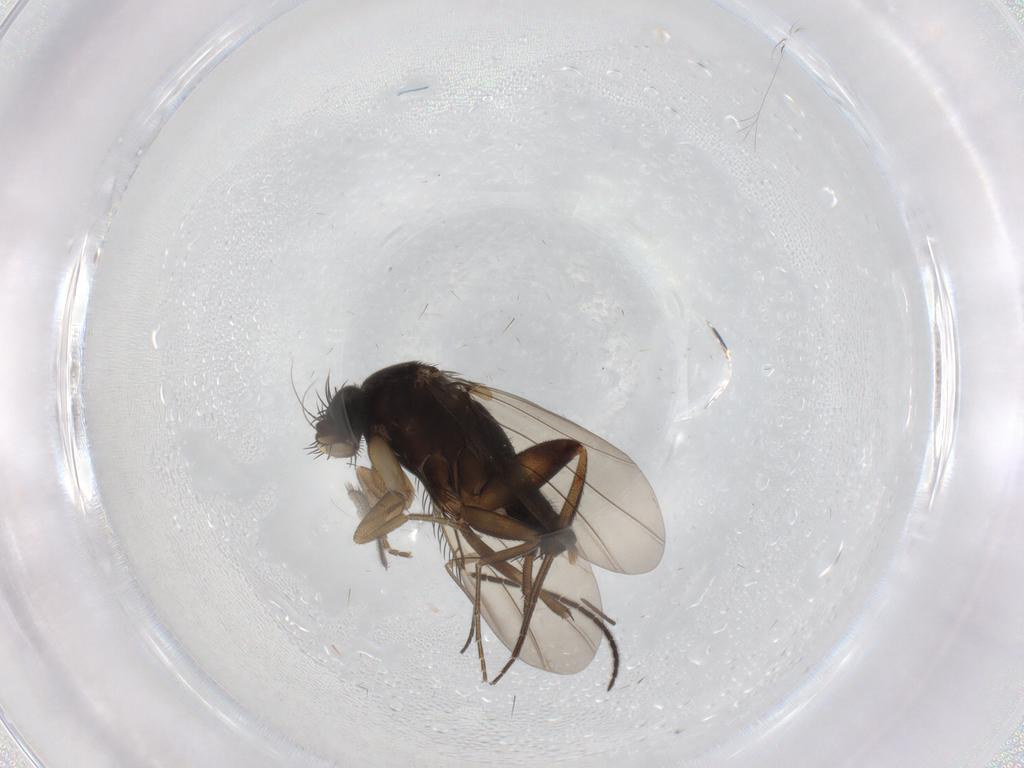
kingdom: Animalia
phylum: Arthropoda
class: Insecta
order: Diptera
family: Phoridae
